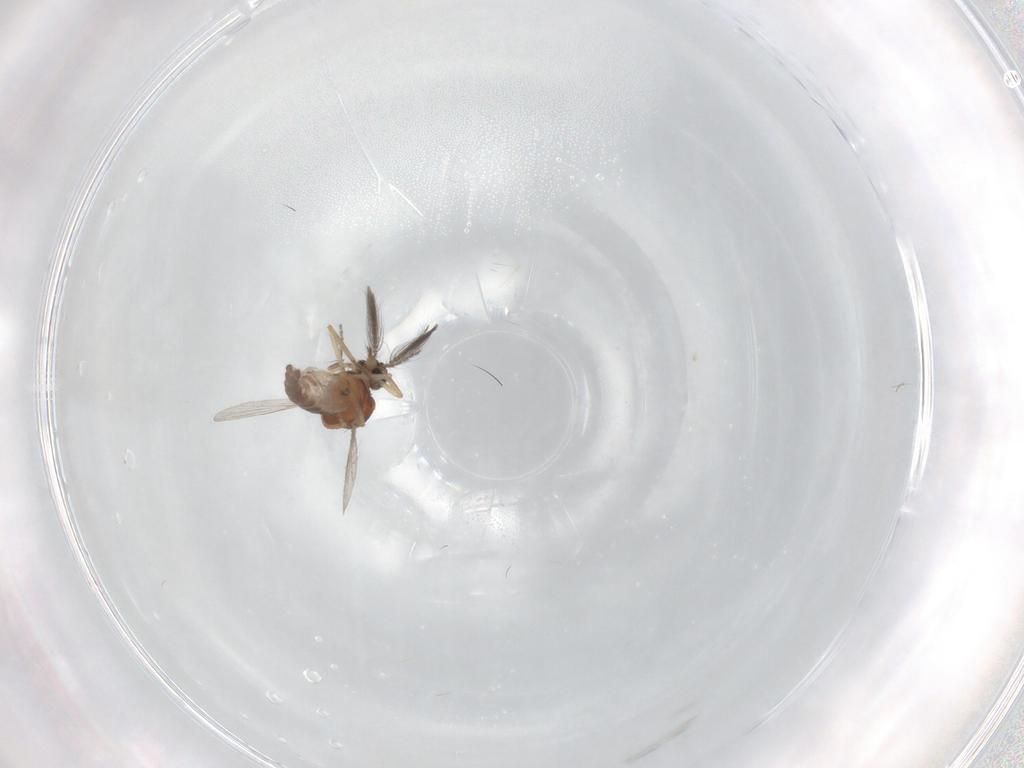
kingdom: Animalia
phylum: Arthropoda
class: Insecta
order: Diptera
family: Ceratopogonidae
